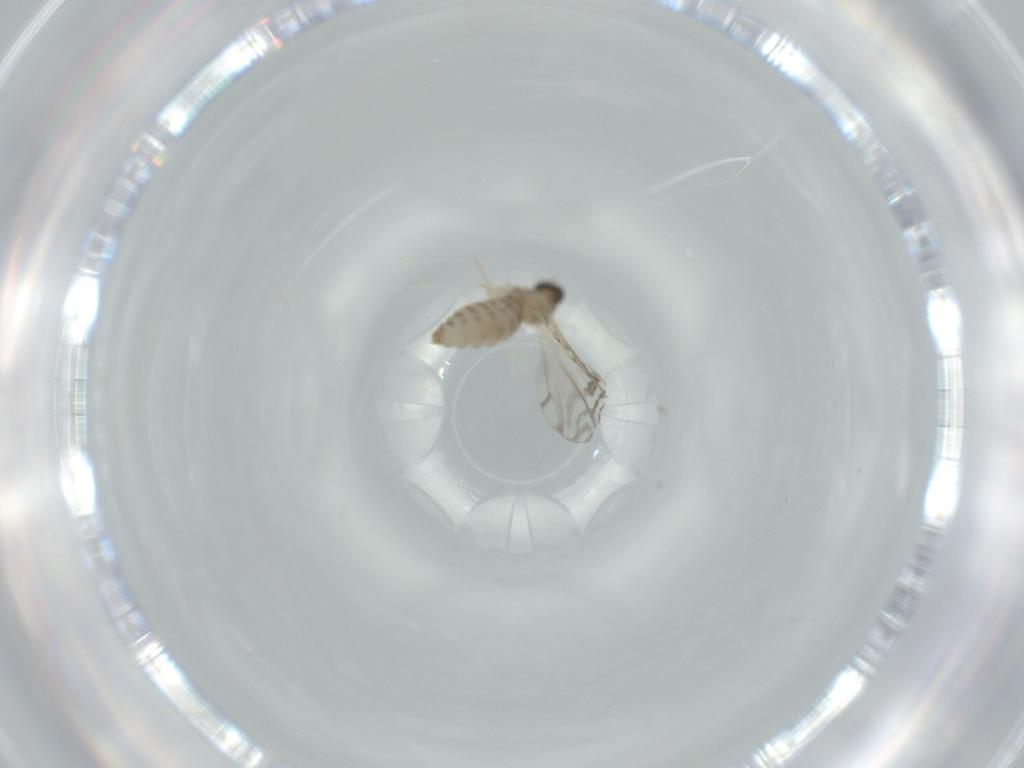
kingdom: Animalia
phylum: Arthropoda
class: Insecta
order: Diptera
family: Cecidomyiidae
